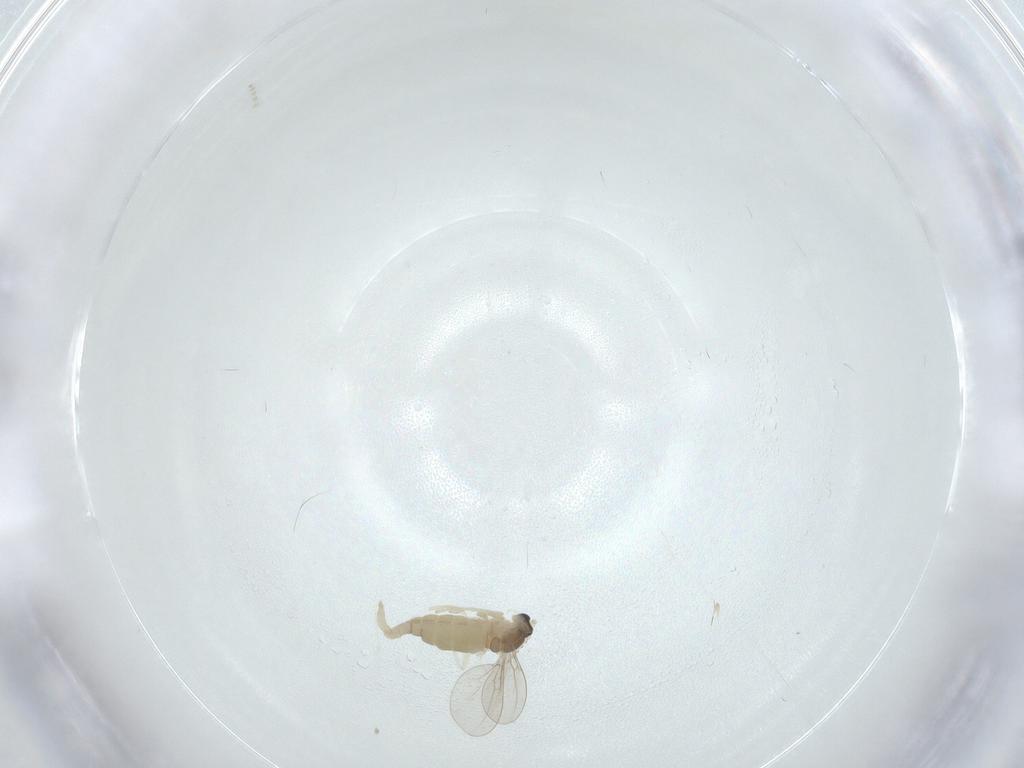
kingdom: Animalia
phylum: Arthropoda
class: Insecta
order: Diptera
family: Cecidomyiidae
